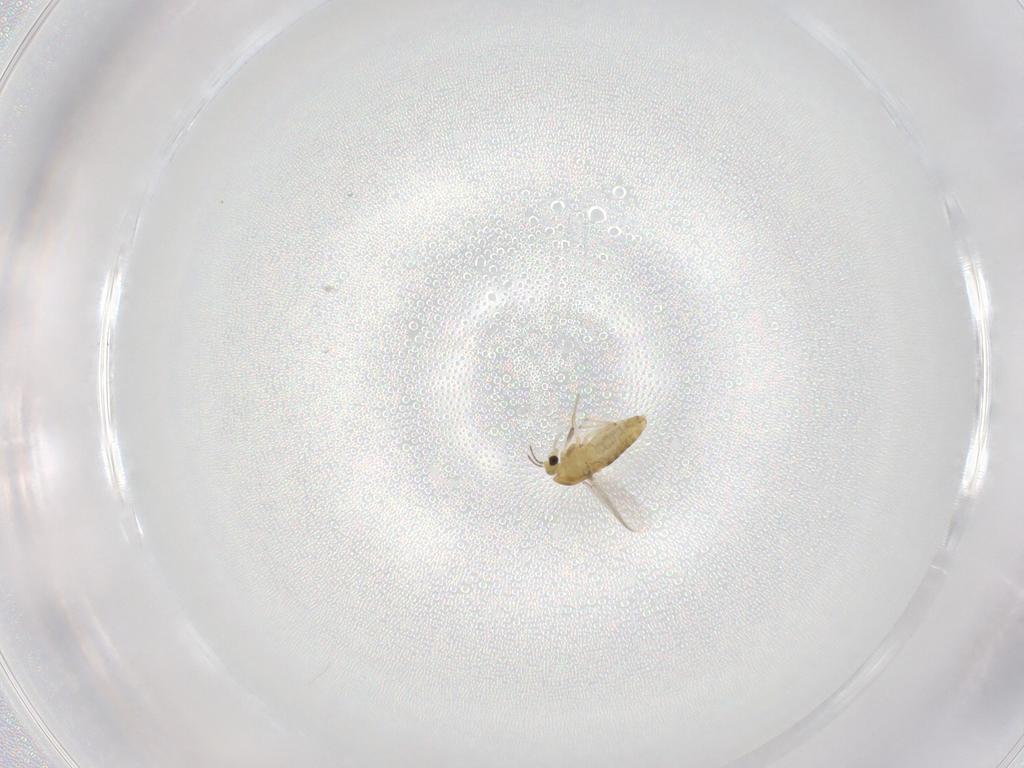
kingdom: Animalia
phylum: Arthropoda
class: Insecta
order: Diptera
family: Chironomidae
